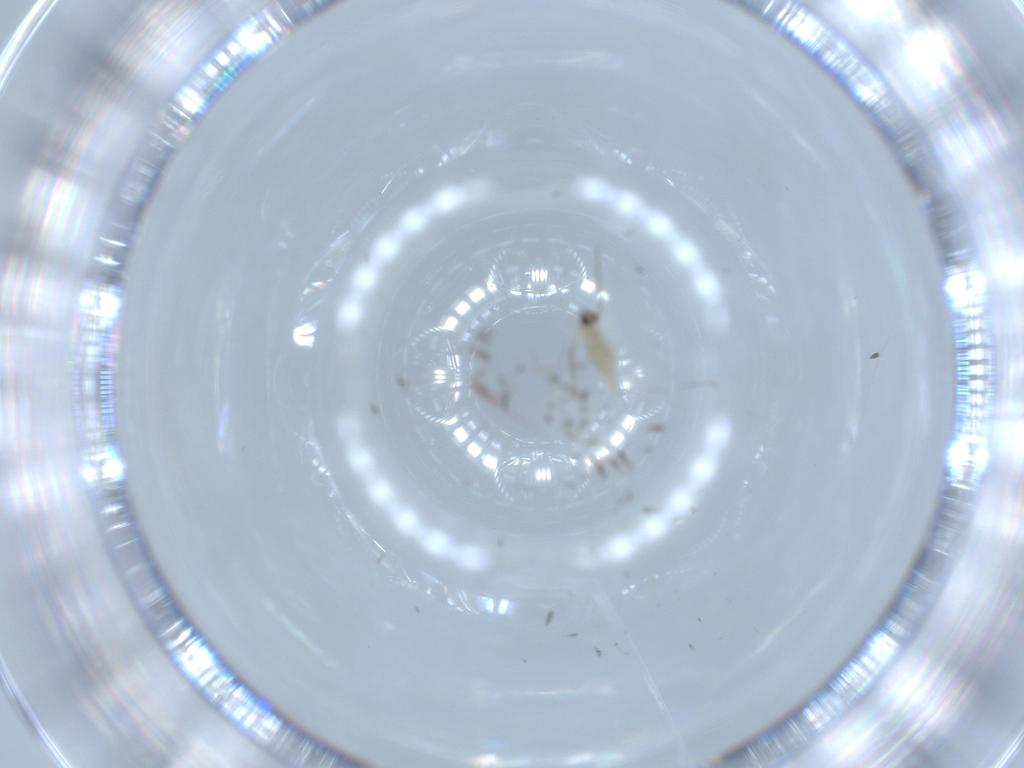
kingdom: Animalia
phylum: Arthropoda
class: Insecta
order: Diptera
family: Cecidomyiidae
